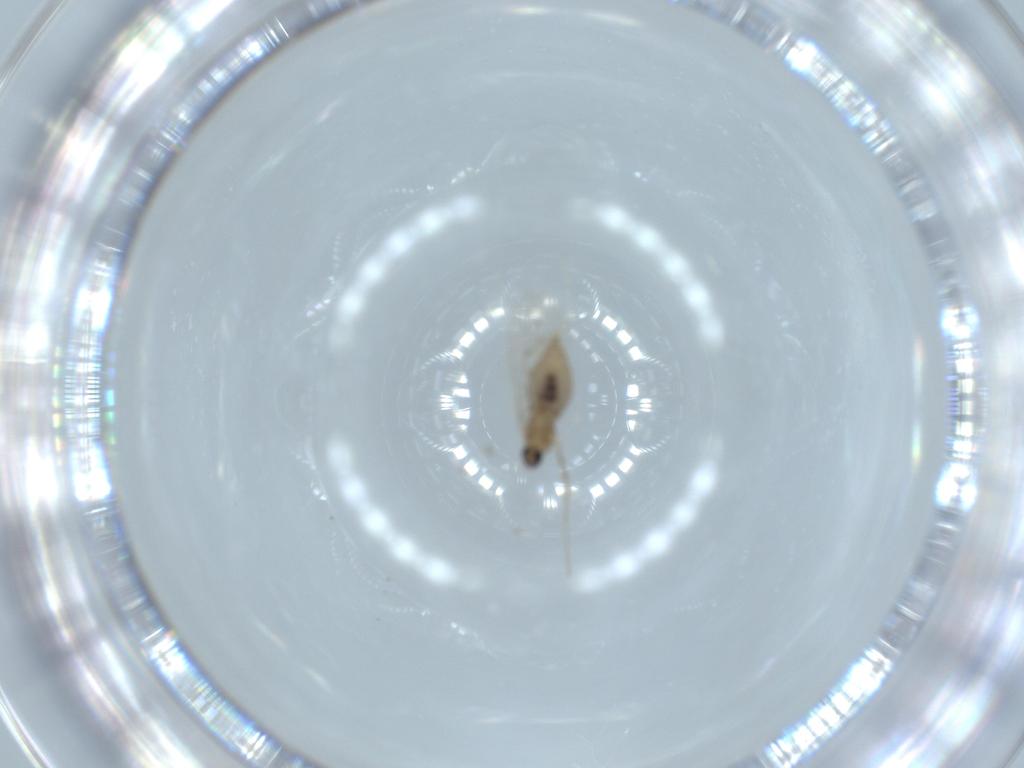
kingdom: Animalia
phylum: Arthropoda
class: Insecta
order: Diptera
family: Cecidomyiidae
